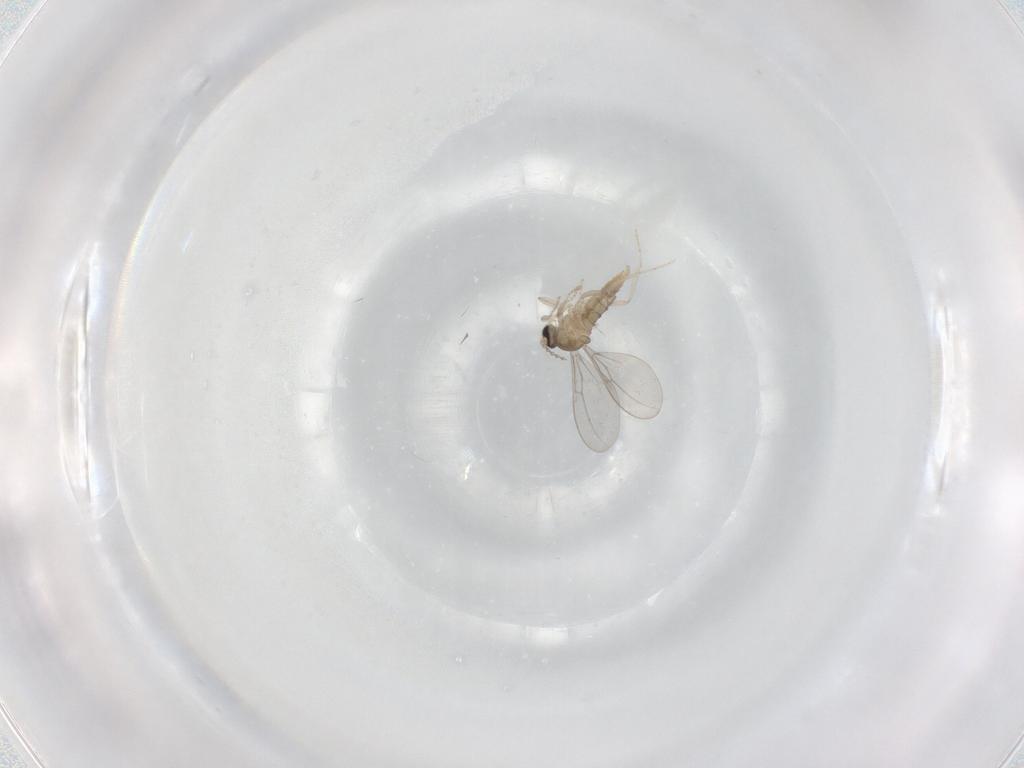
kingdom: Animalia
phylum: Arthropoda
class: Insecta
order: Diptera
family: Cecidomyiidae
